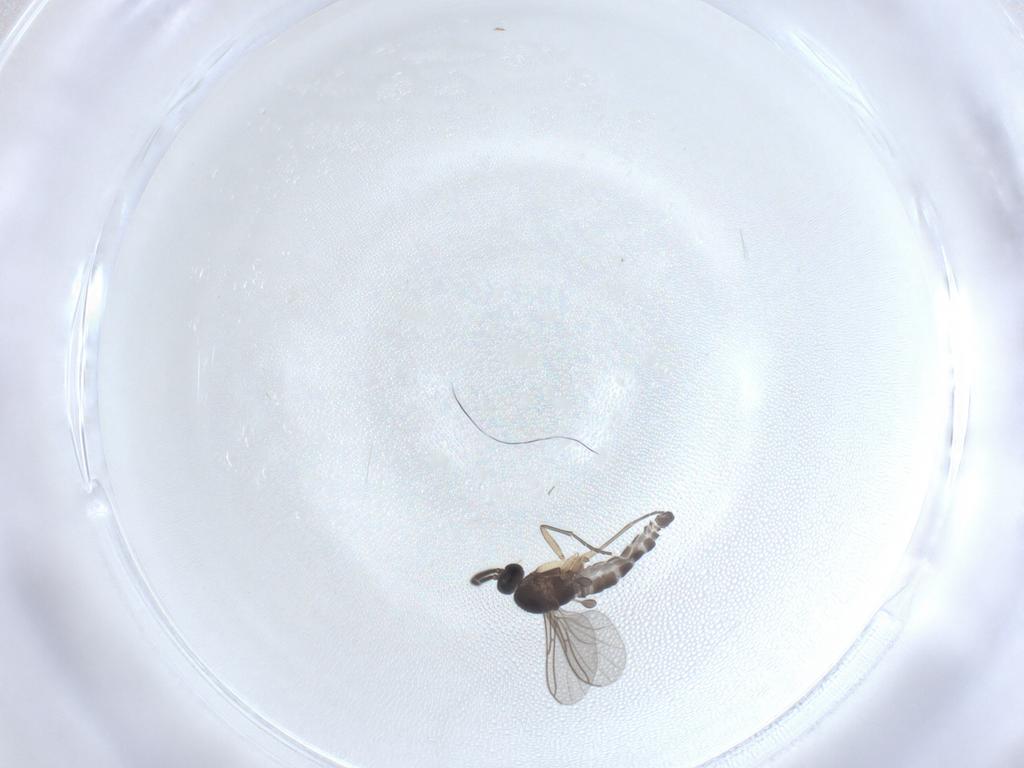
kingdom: Animalia
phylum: Arthropoda
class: Insecta
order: Diptera
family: Sciaridae
